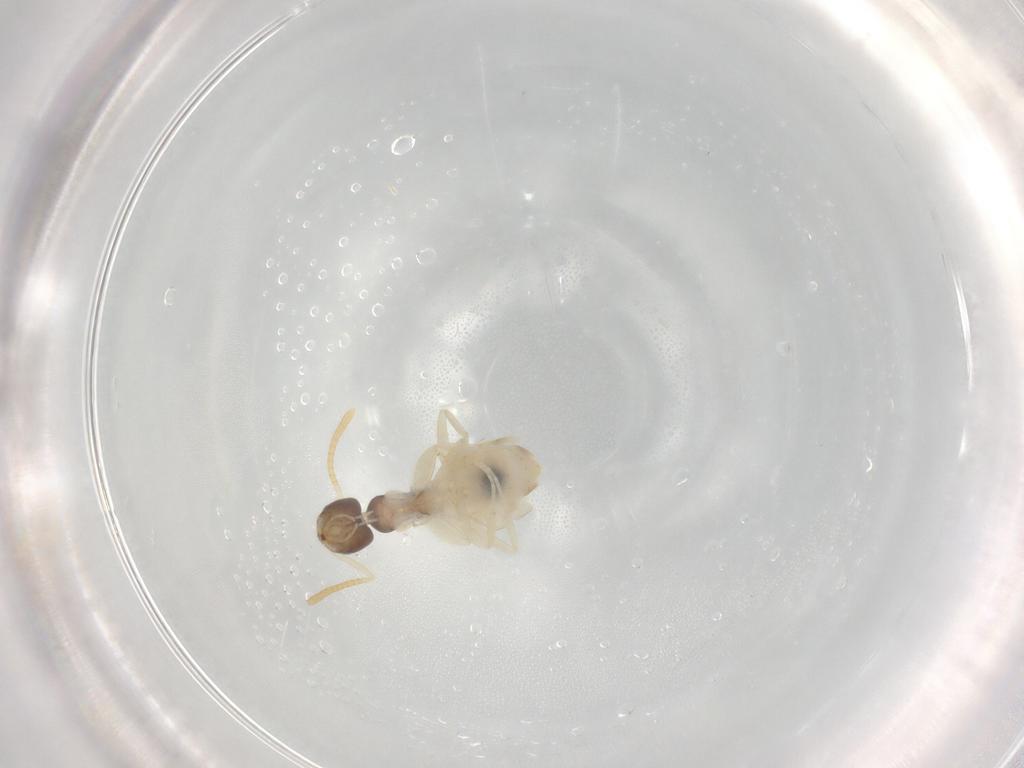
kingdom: Animalia
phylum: Arthropoda
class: Insecta
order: Hymenoptera
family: Formicidae
